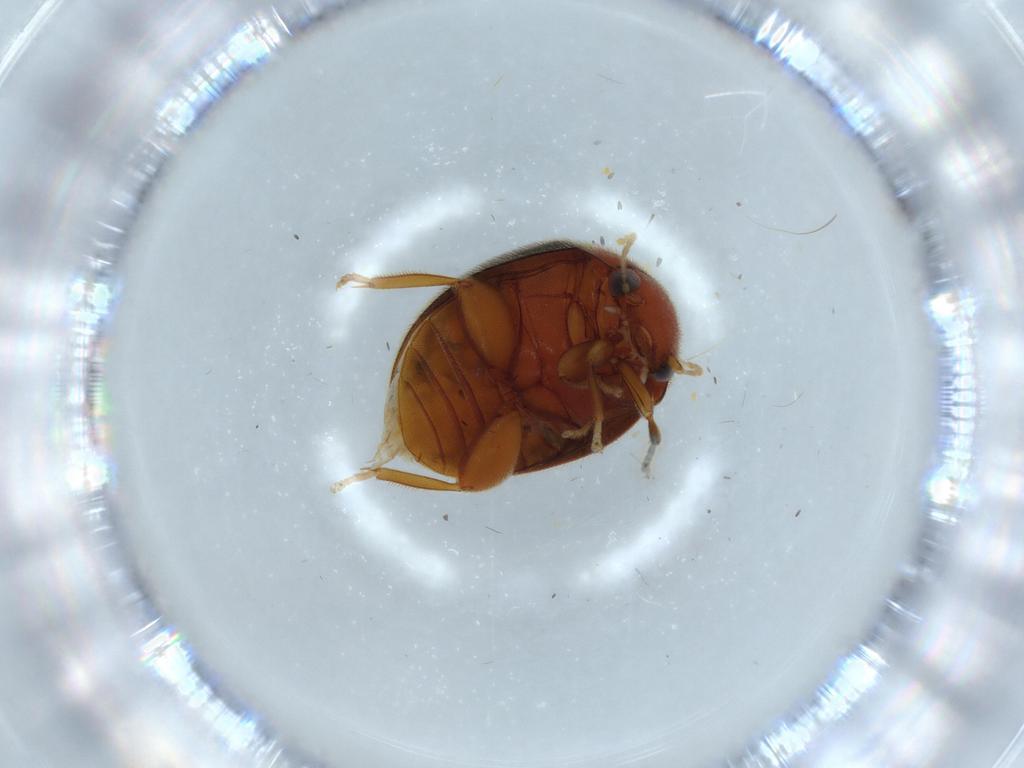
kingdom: Animalia
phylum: Arthropoda
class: Insecta
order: Coleoptera
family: Scirtidae
